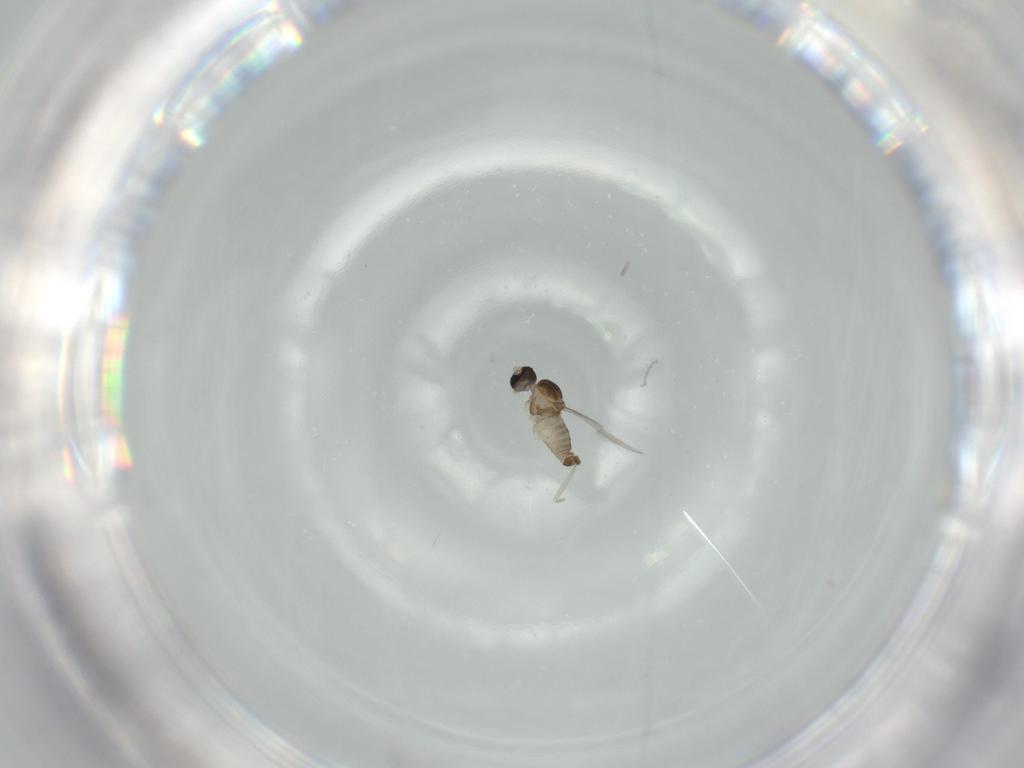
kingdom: Animalia
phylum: Arthropoda
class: Insecta
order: Diptera
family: Cecidomyiidae
